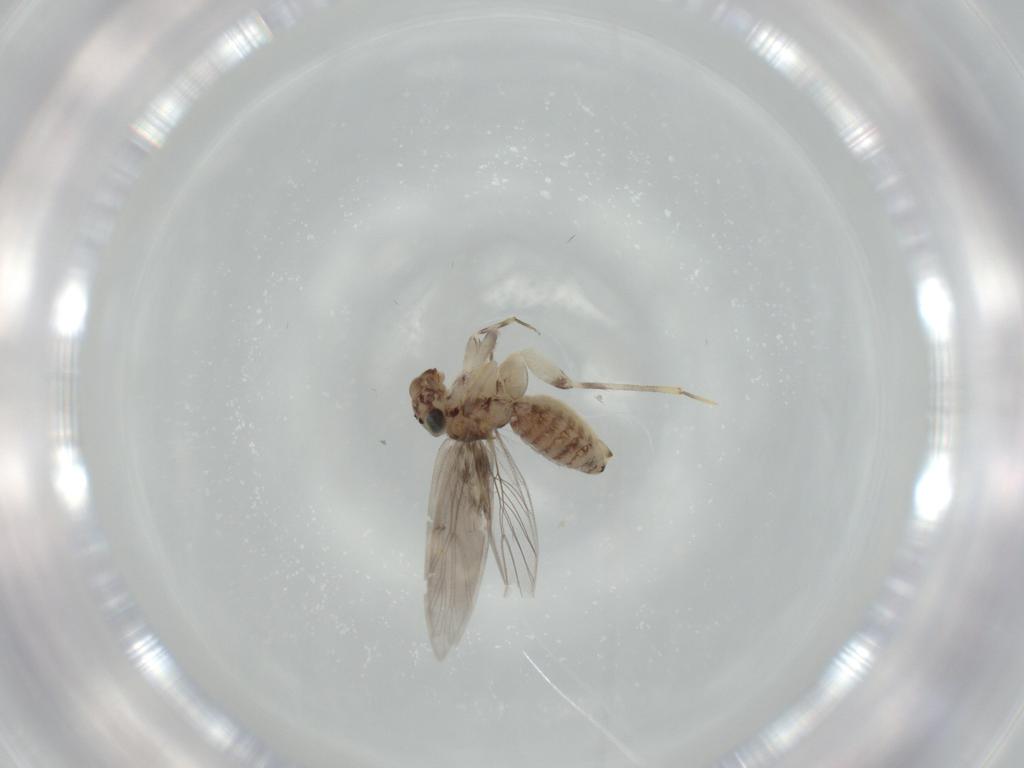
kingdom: Animalia
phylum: Arthropoda
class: Insecta
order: Psocodea
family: Lepidopsocidae
